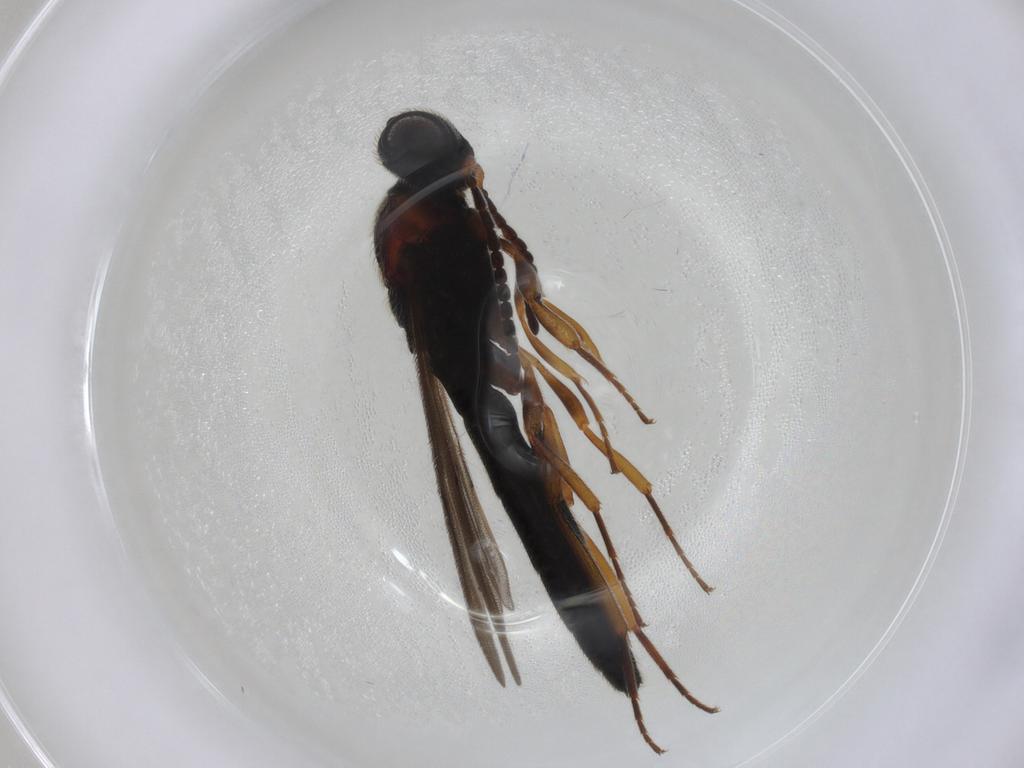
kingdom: Animalia
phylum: Arthropoda
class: Insecta
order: Hymenoptera
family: Scelionidae
